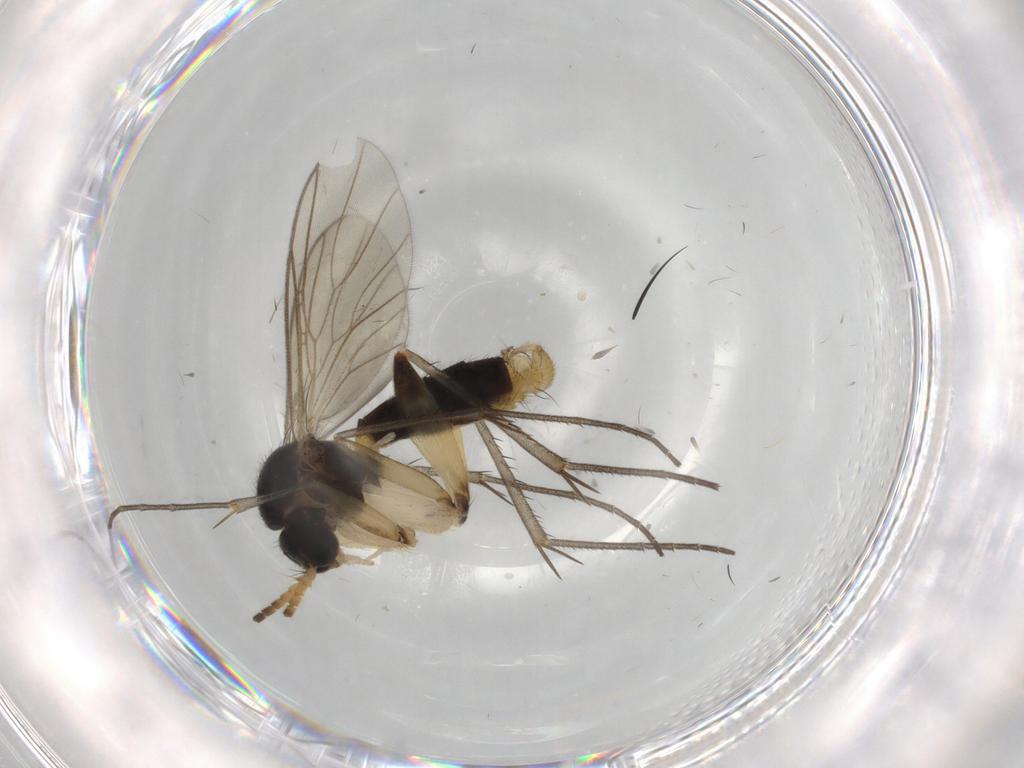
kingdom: Animalia
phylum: Arthropoda
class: Insecta
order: Diptera
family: Mycetophilidae
